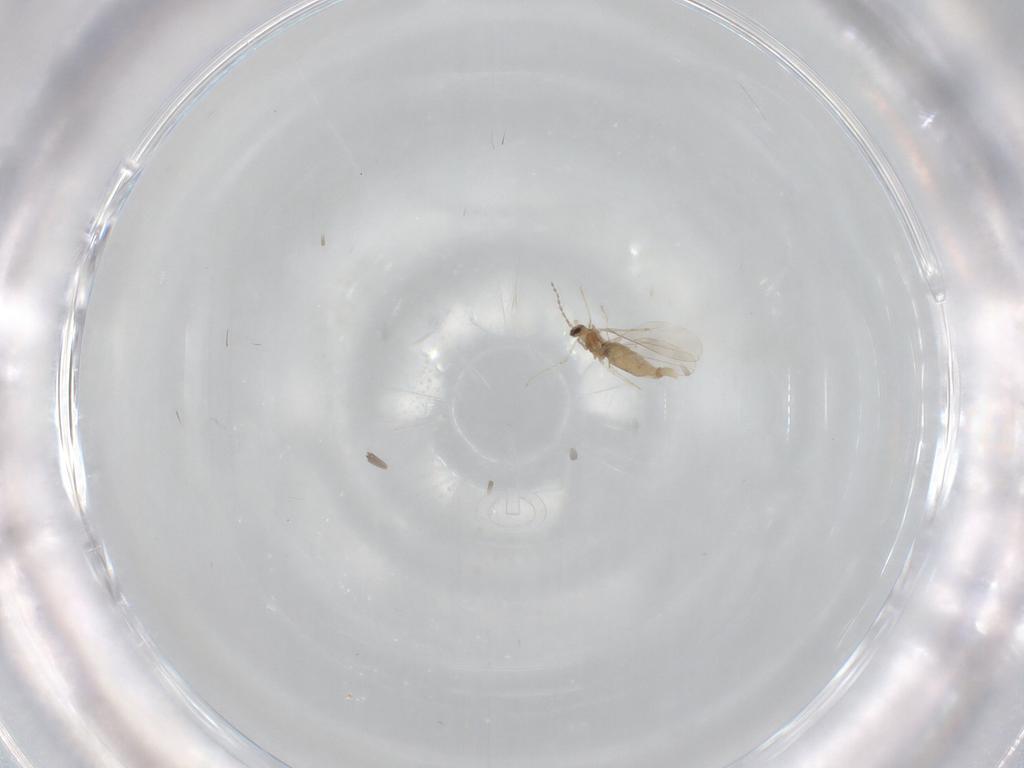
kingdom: Animalia
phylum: Arthropoda
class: Insecta
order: Diptera
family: Cecidomyiidae
